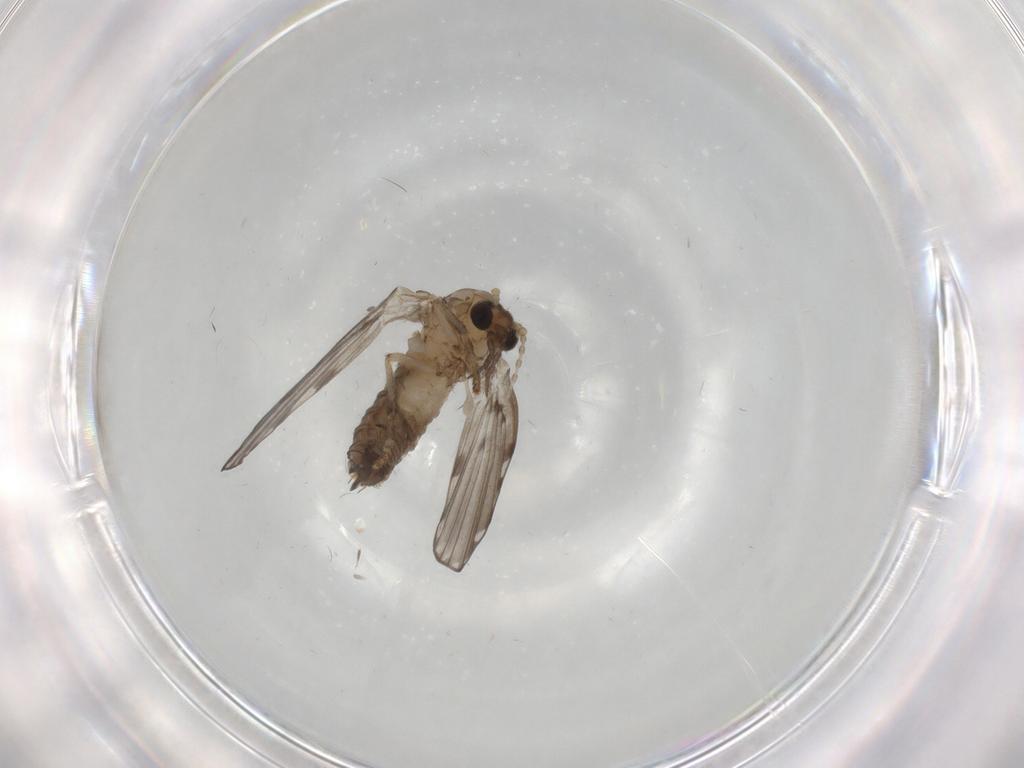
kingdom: Animalia
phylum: Arthropoda
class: Insecta
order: Diptera
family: Psychodidae
